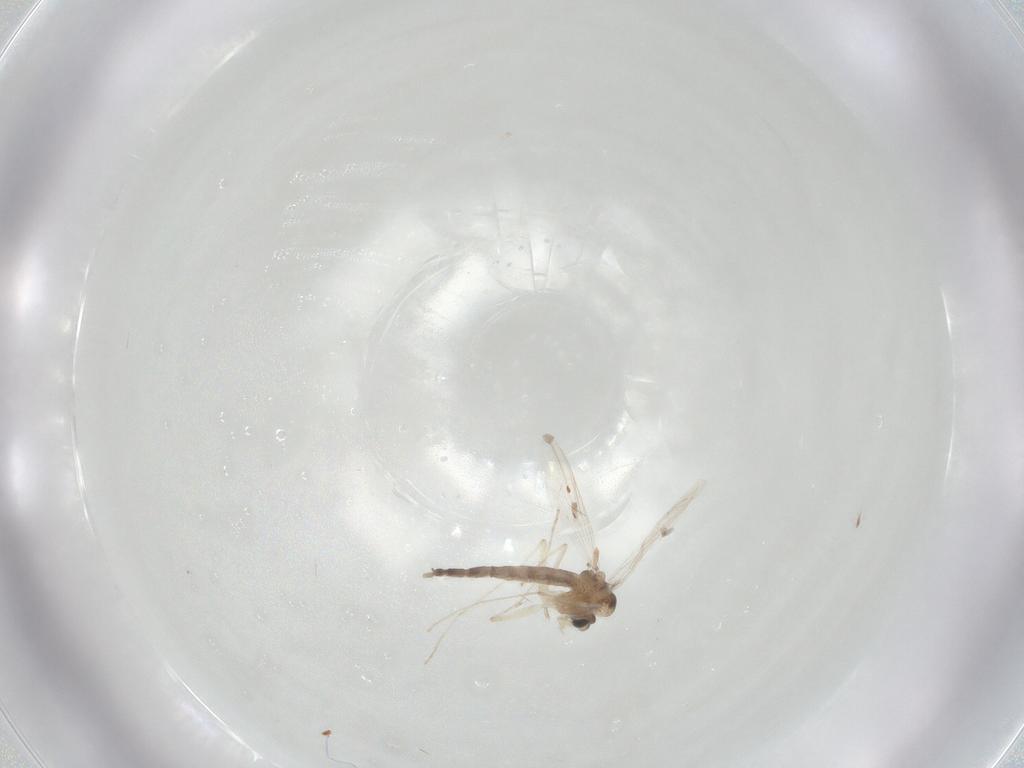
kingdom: Animalia
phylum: Arthropoda
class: Insecta
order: Diptera
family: Chironomidae
